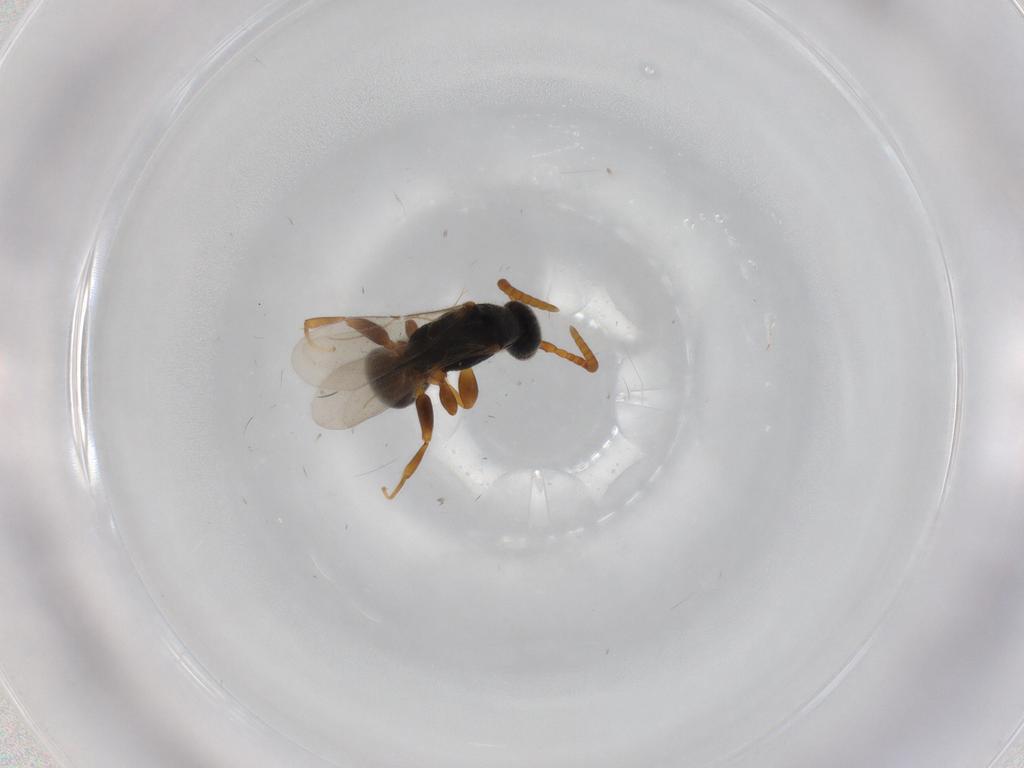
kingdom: Animalia
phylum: Arthropoda
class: Insecta
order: Hymenoptera
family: Bethylidae
